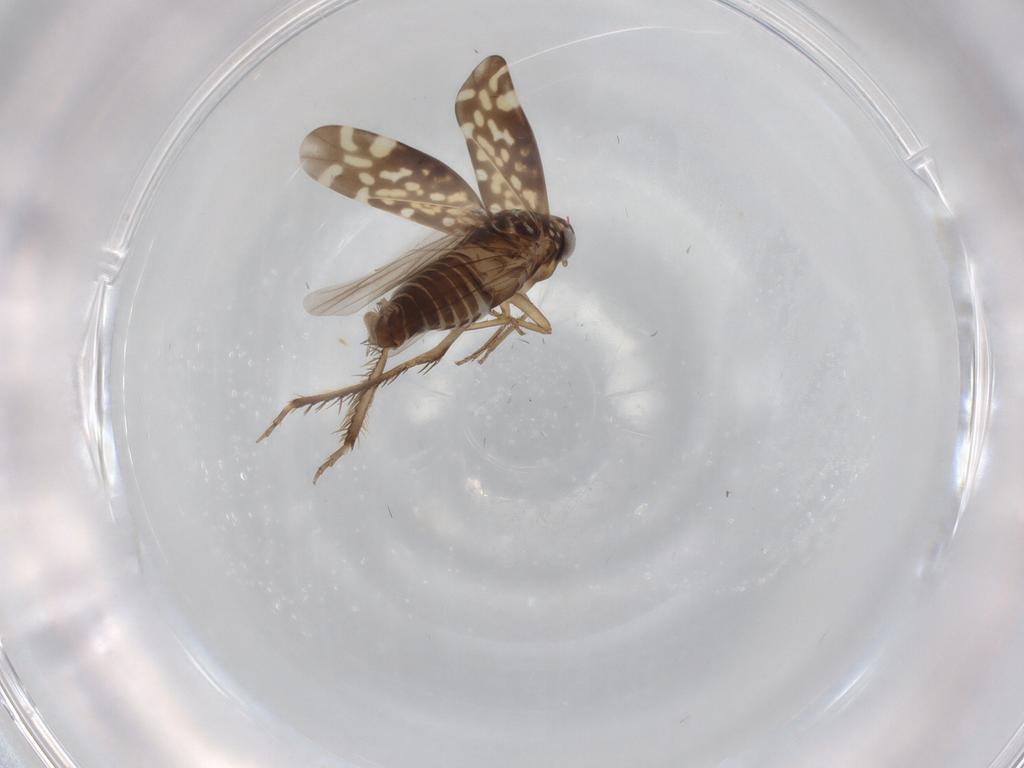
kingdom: Animalia
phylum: Arthropoda
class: Insecta
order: Hemiptera
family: Cicadellidae
